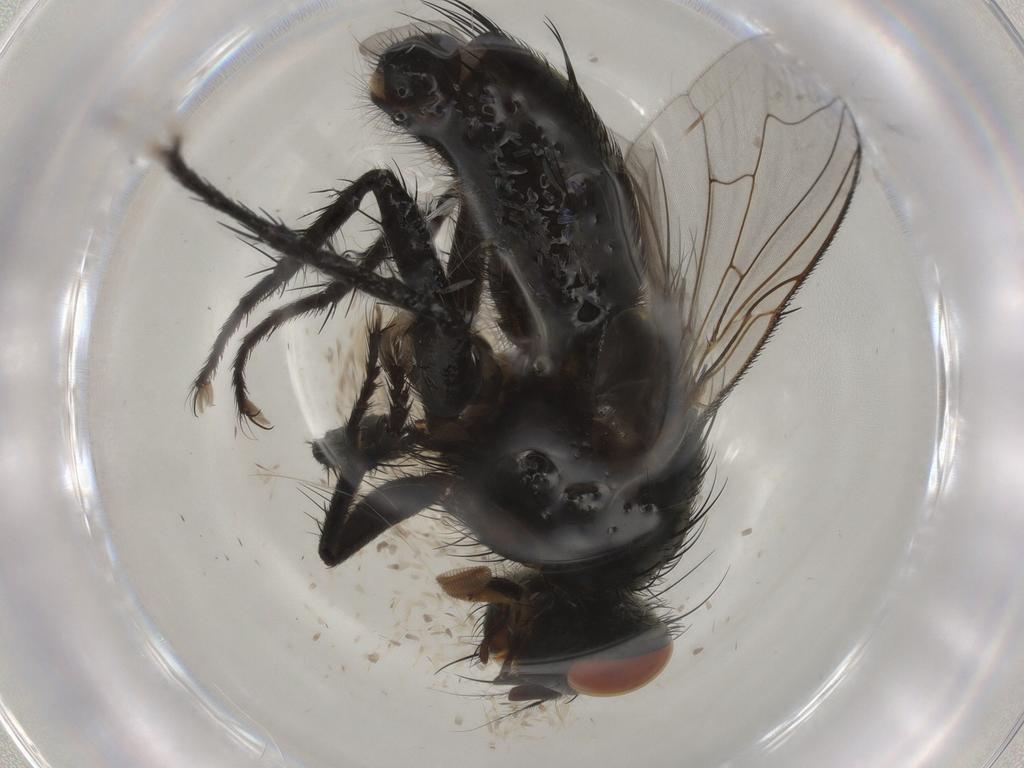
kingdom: Animalia
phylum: Arthropoda
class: Insecta
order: Diptera
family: Sarcophagidae
